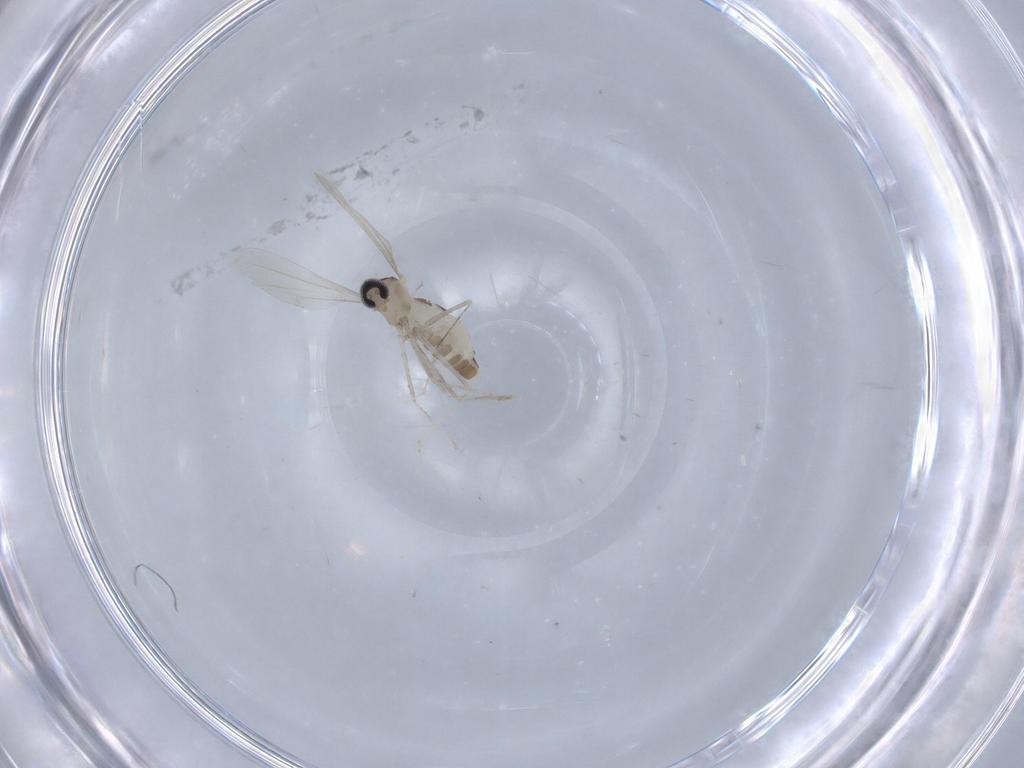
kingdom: Animalia
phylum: Arthropoda
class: Insecta
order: Diptera
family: Cecidomyiidae
